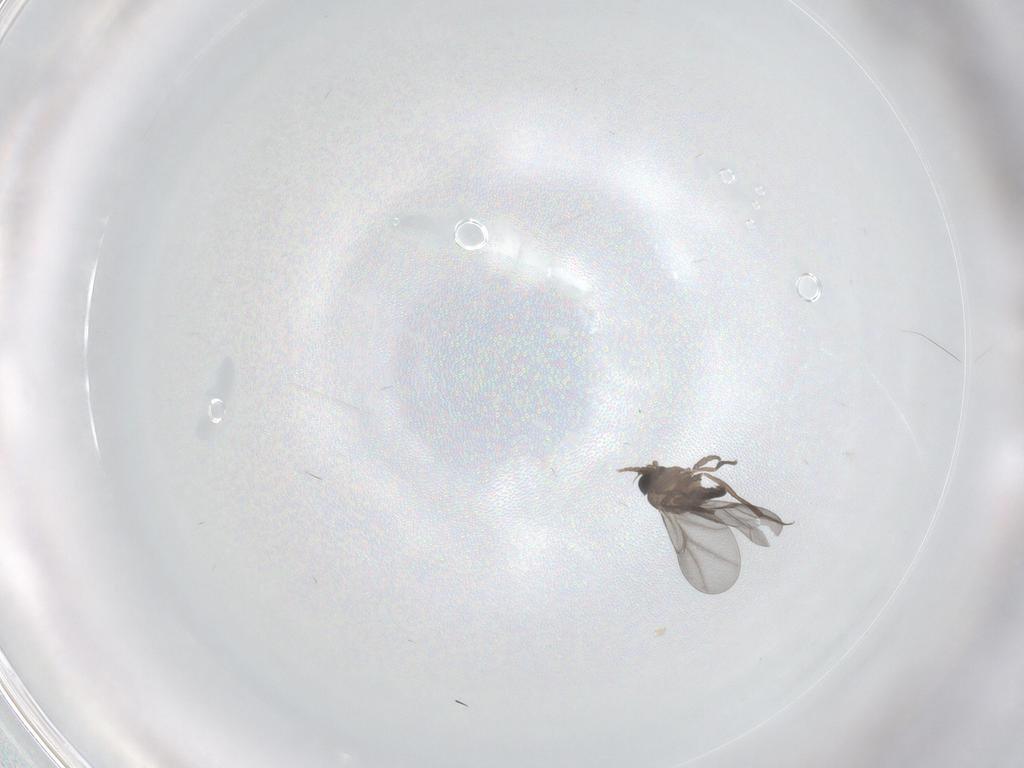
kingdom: Animalia
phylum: Arthropoda
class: Insecta
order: Diptera
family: Phoridae
